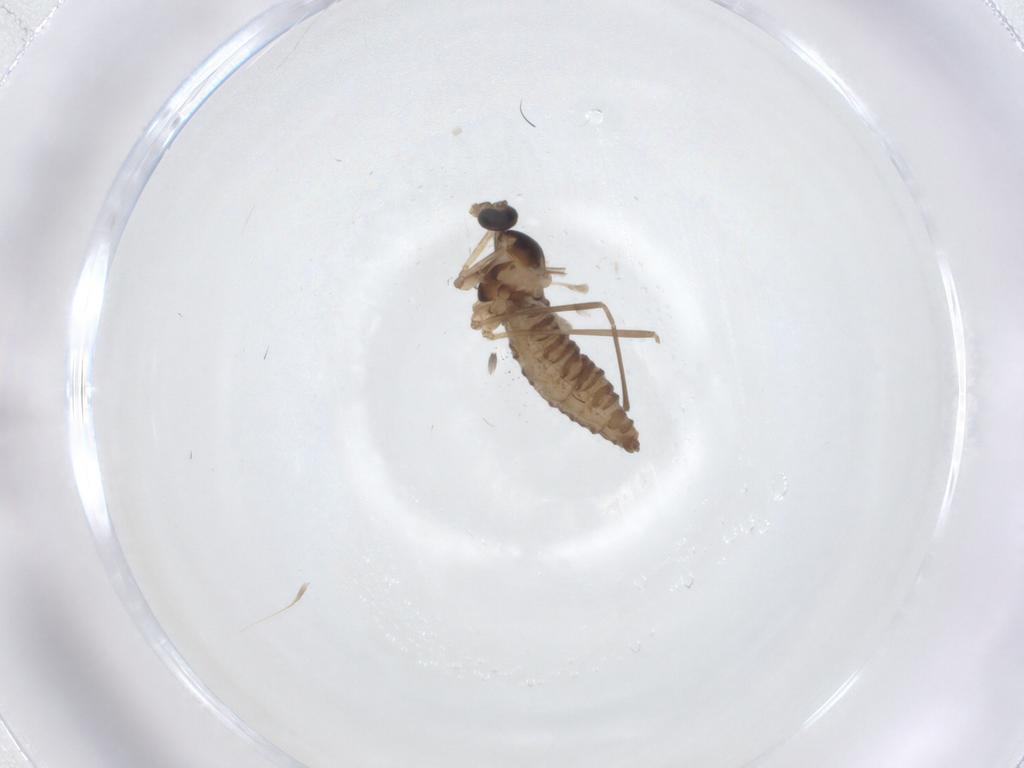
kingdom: Animalia
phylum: Arthropoda
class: Insecta
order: Diptera
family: Cecidomyiidae
